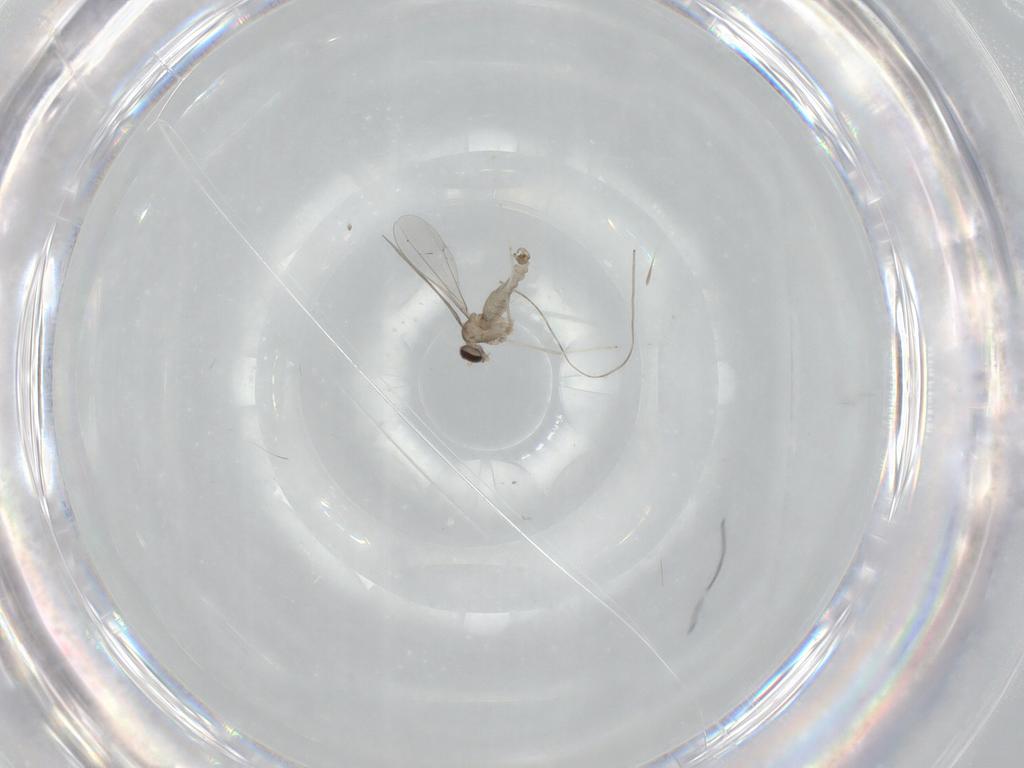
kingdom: Animalia
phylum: Arthropoda
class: Insecta
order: Diptera
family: Cecidomyiidae
